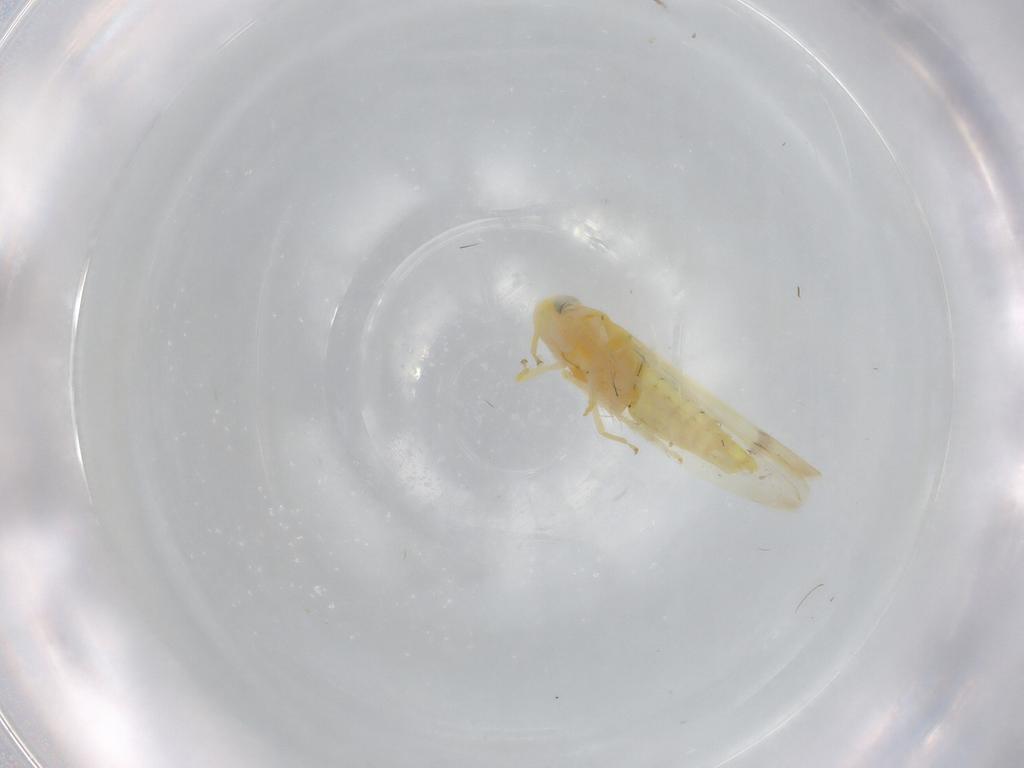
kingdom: Animalia
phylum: Arthropoda
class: Insecta
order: Hemiptera
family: Cicadellidae
